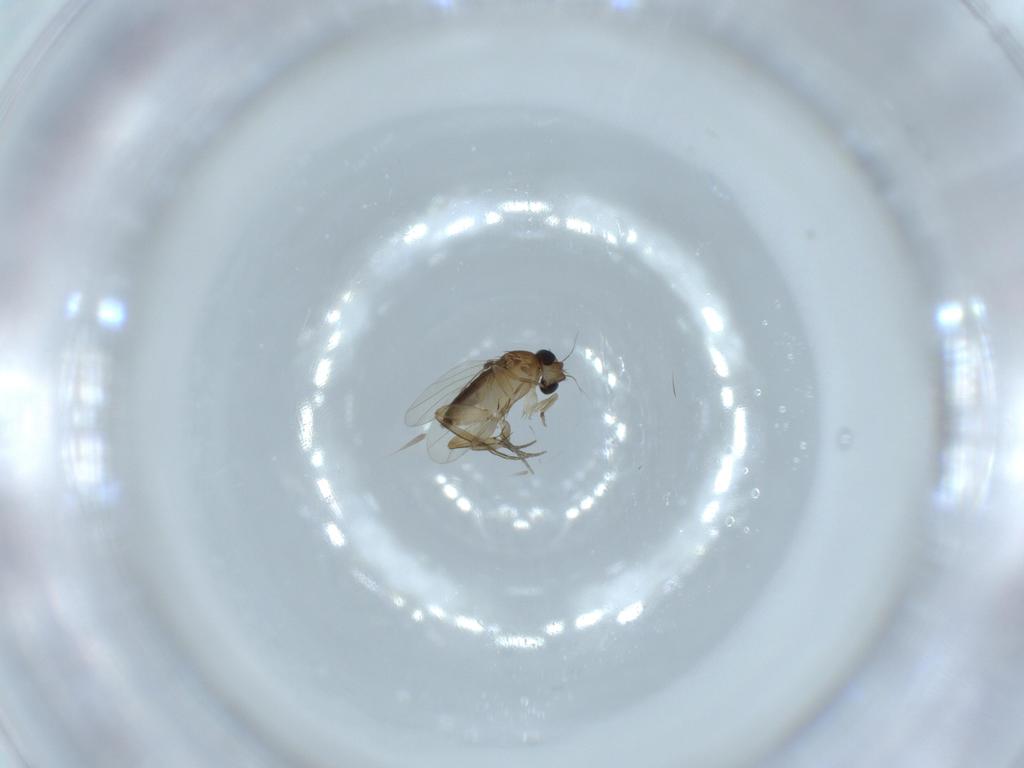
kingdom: Animalia
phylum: Arthropoda
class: Insecta
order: Diptera
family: Phoridae
